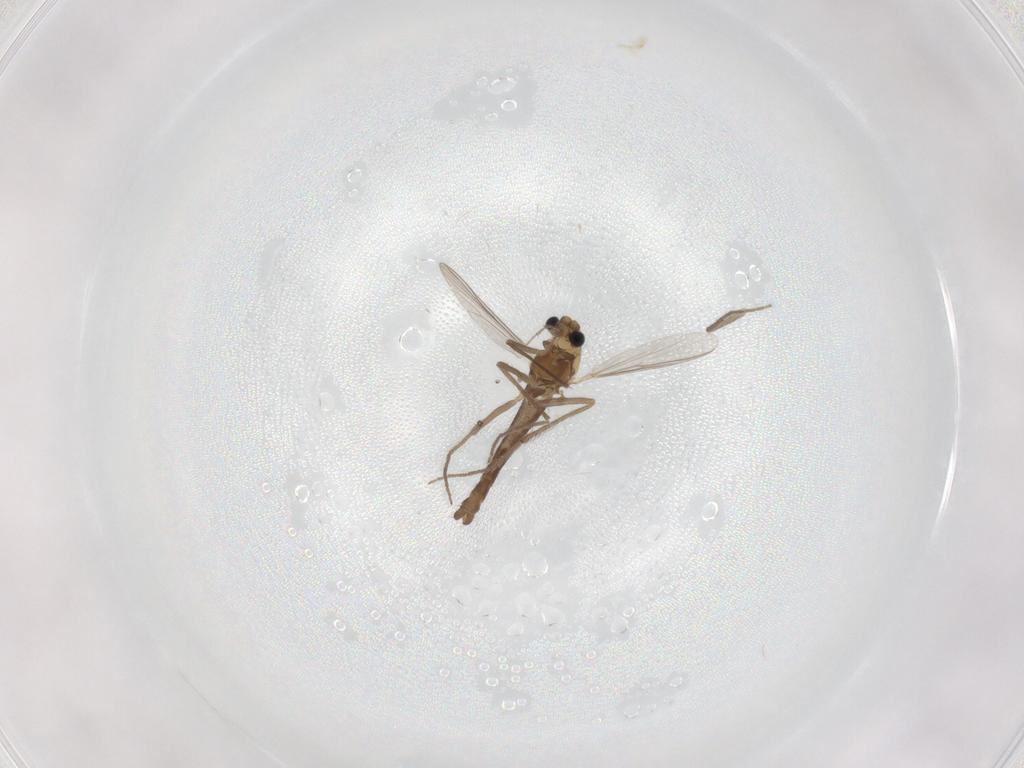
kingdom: Animalia
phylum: Arthropoda
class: Insecta
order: Diptera
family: Chironomidae
